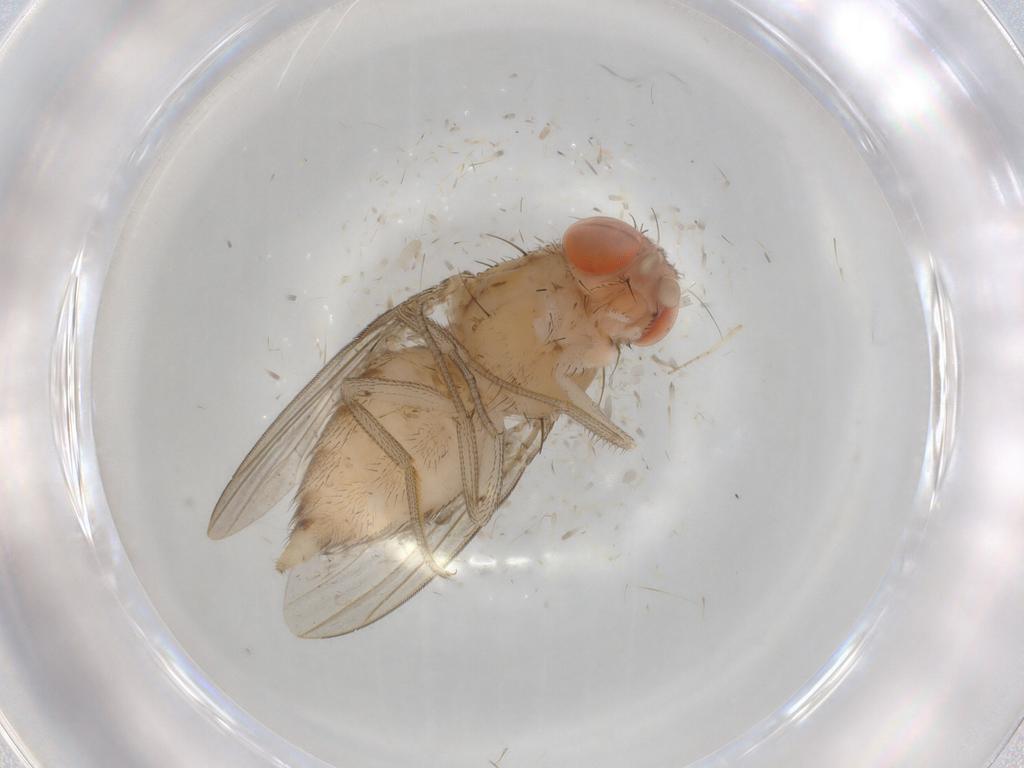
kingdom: Animalia
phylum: Arthropoda
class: Insecta
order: Diptera
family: Drosophilidae
